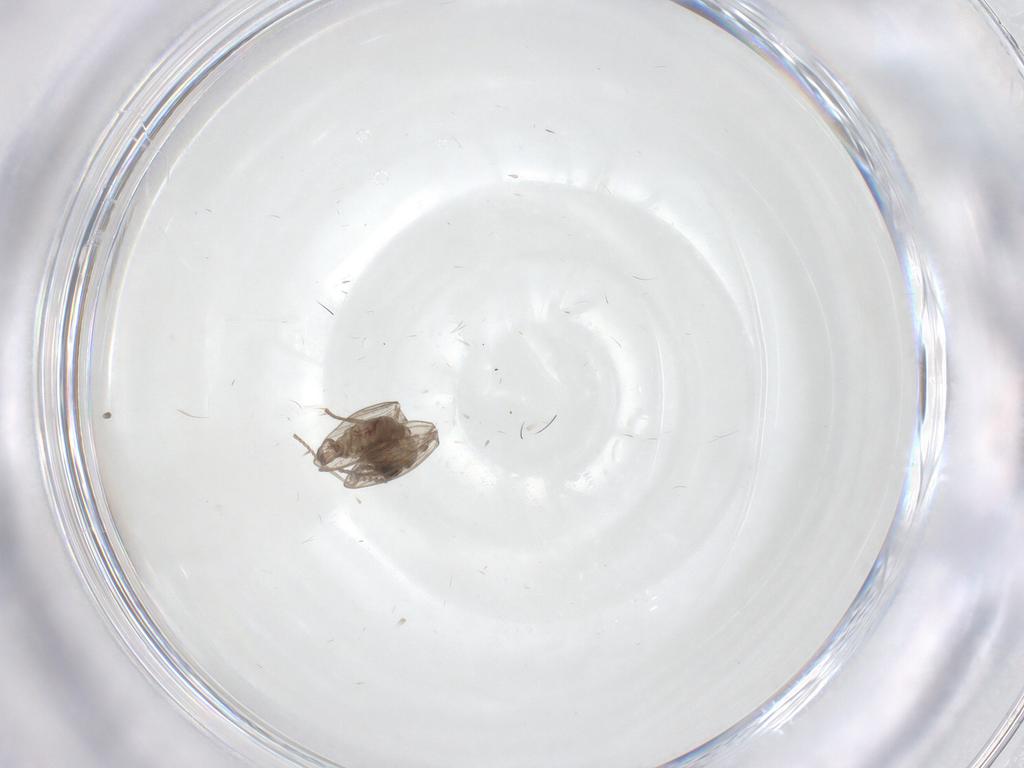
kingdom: Animalia
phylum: Arthropoda
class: Insecta
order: Diptera
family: Psychodidae
